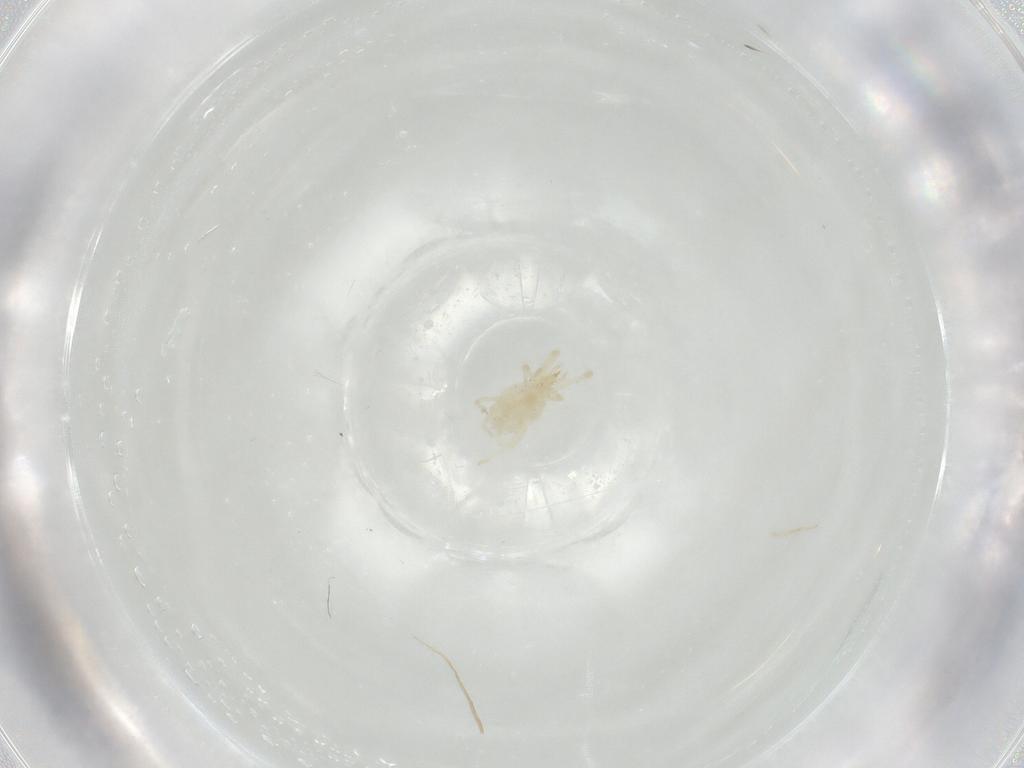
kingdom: Animalia
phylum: Arthropoda
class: Arachnida
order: Trombidiformes
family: Eupodidae
